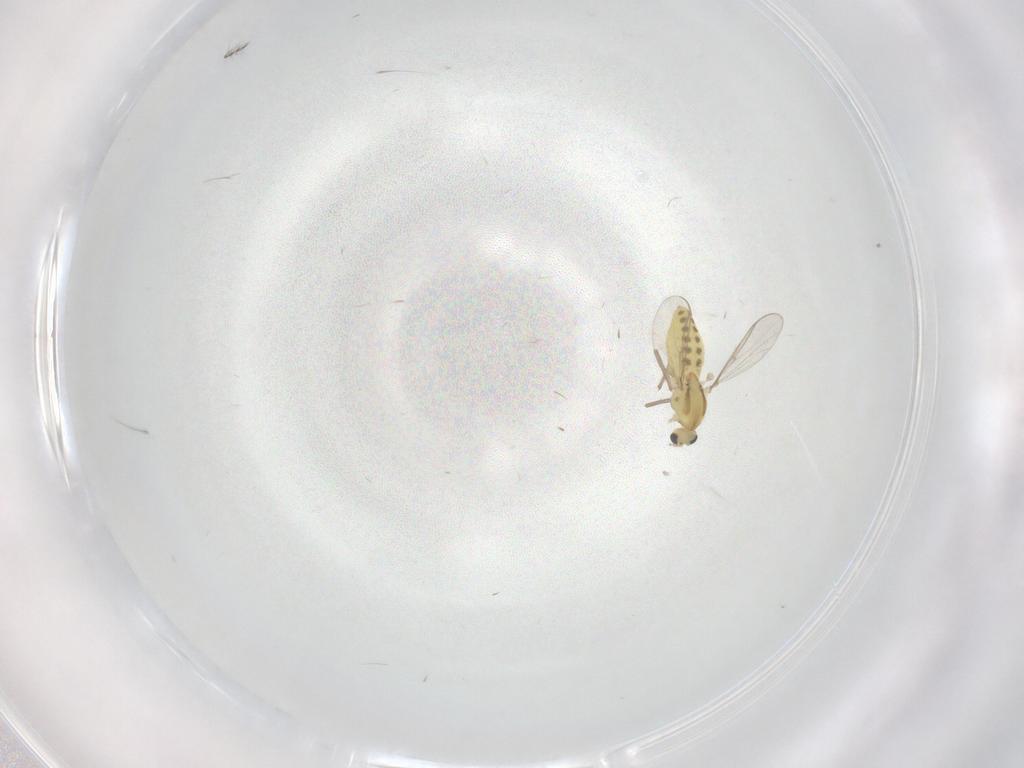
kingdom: Animalia
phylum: Arthropoda
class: Insecta
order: Diptera
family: Chironomidae
